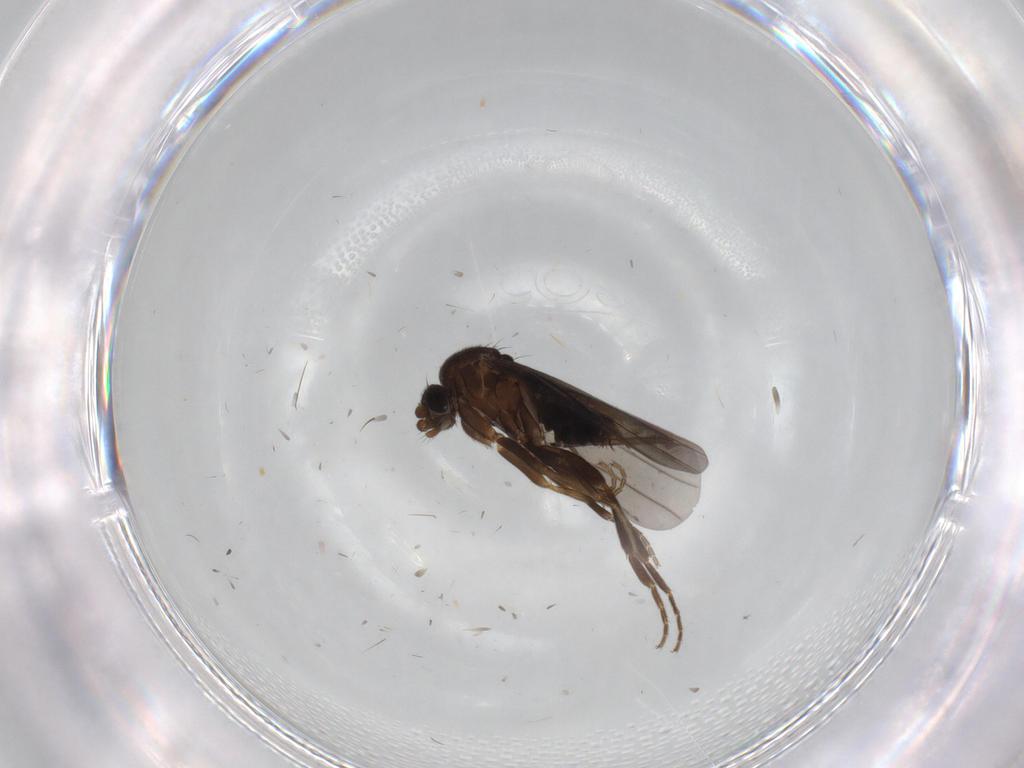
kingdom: Animalia
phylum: Arthropoda
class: Insecta
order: Diptera
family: Phoridae
